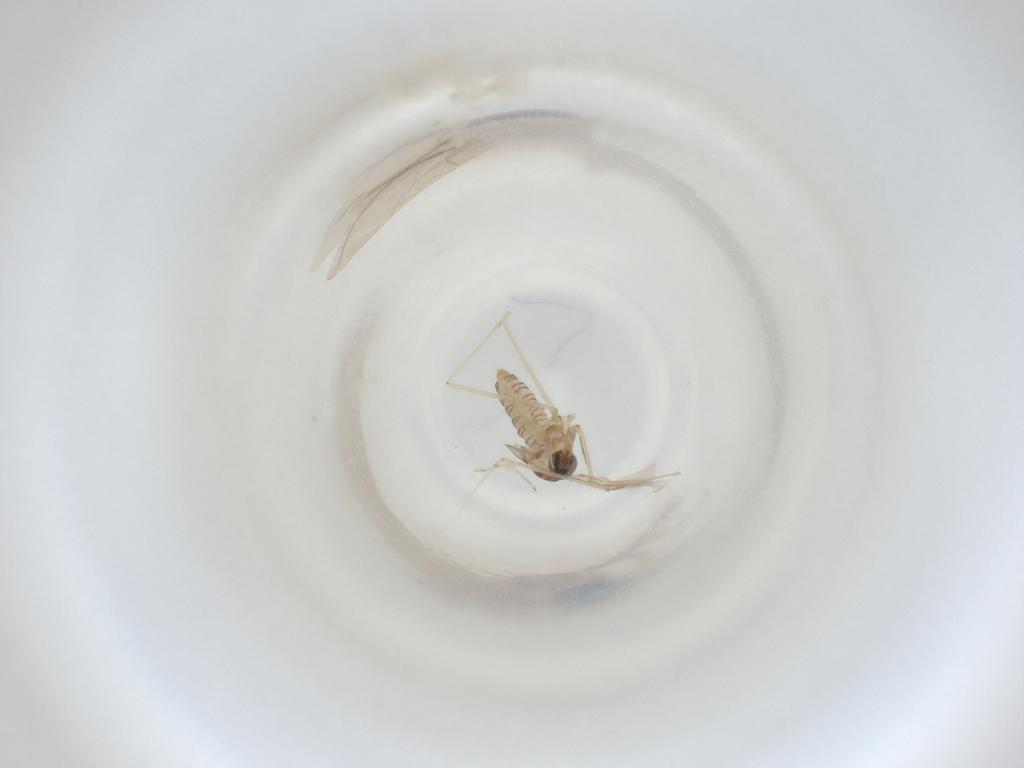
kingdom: Animalia
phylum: Arthropoda
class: Insecta
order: Diptera
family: Cecidomyiidae
